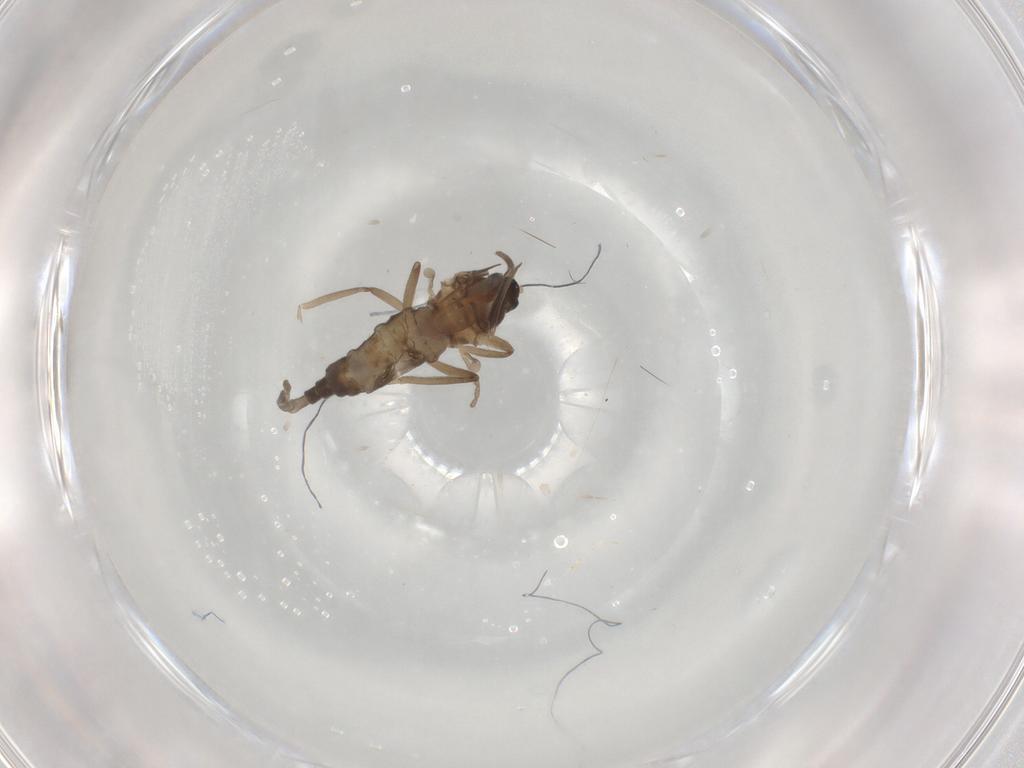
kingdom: Animalia
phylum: Arthropoda
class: Insecta
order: Diptera
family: Cecidomyiidae
